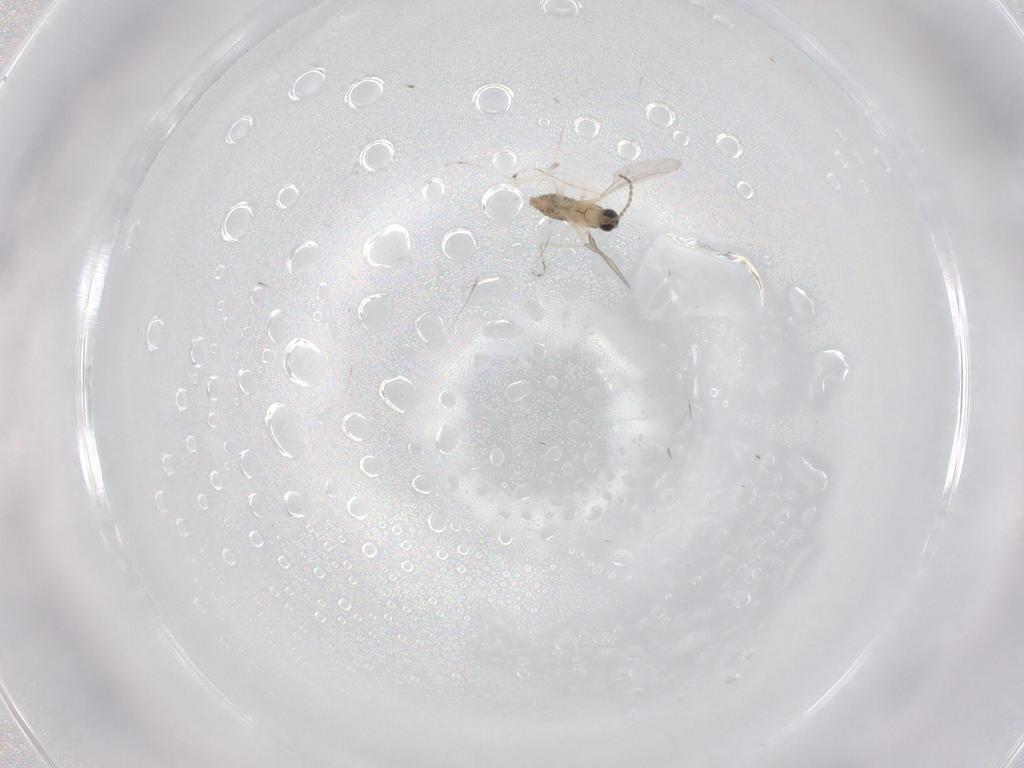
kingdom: Animalia
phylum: Arthropoda
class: Insecta
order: Diptera
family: Cecidomyiidae
